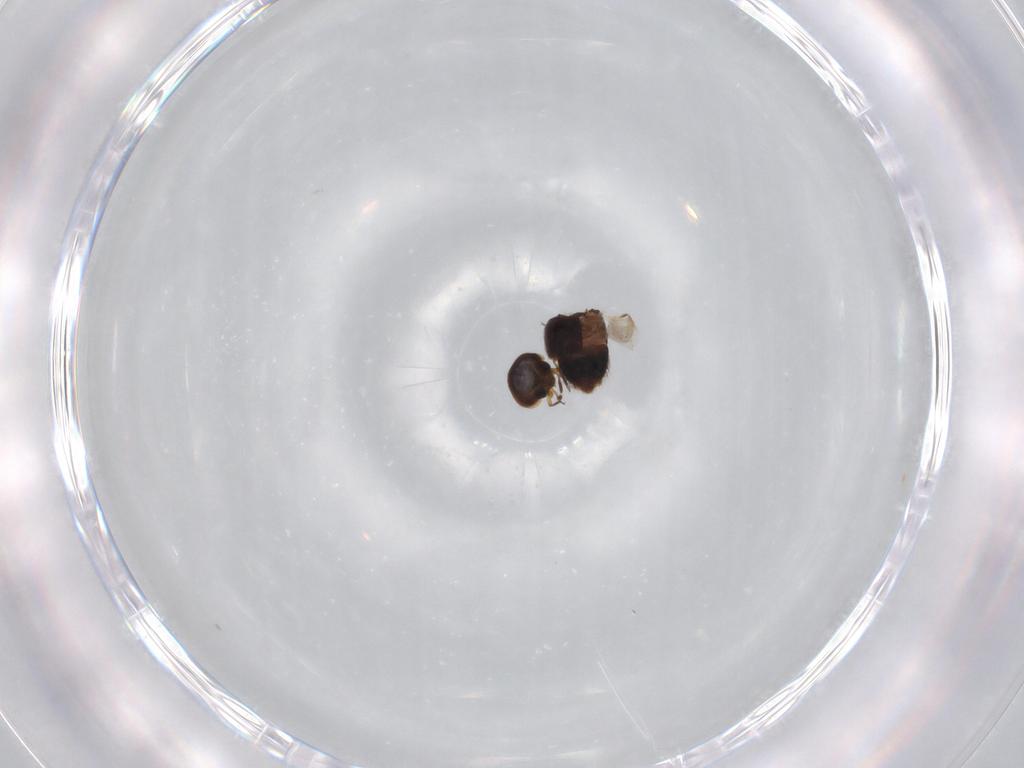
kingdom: Animalia
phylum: Arthropoda
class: Insecta
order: Coleoptera
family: Staphylinidae
